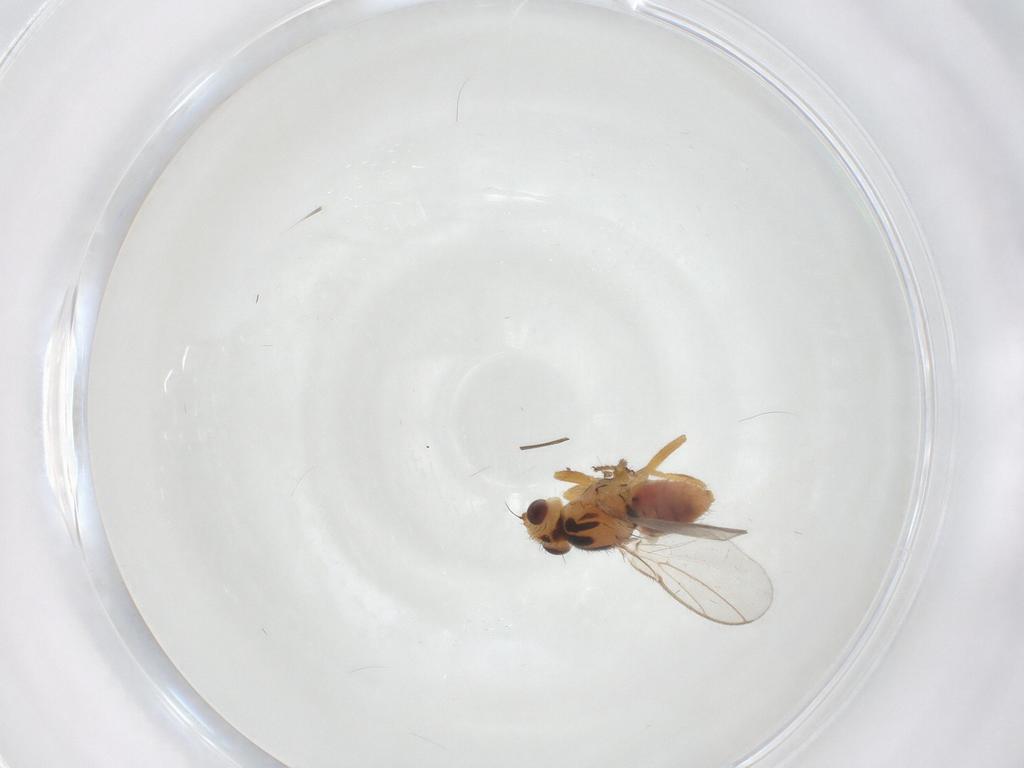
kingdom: Animalia
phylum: Arthropoda
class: Insecta
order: Diptera
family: Chloropidae
